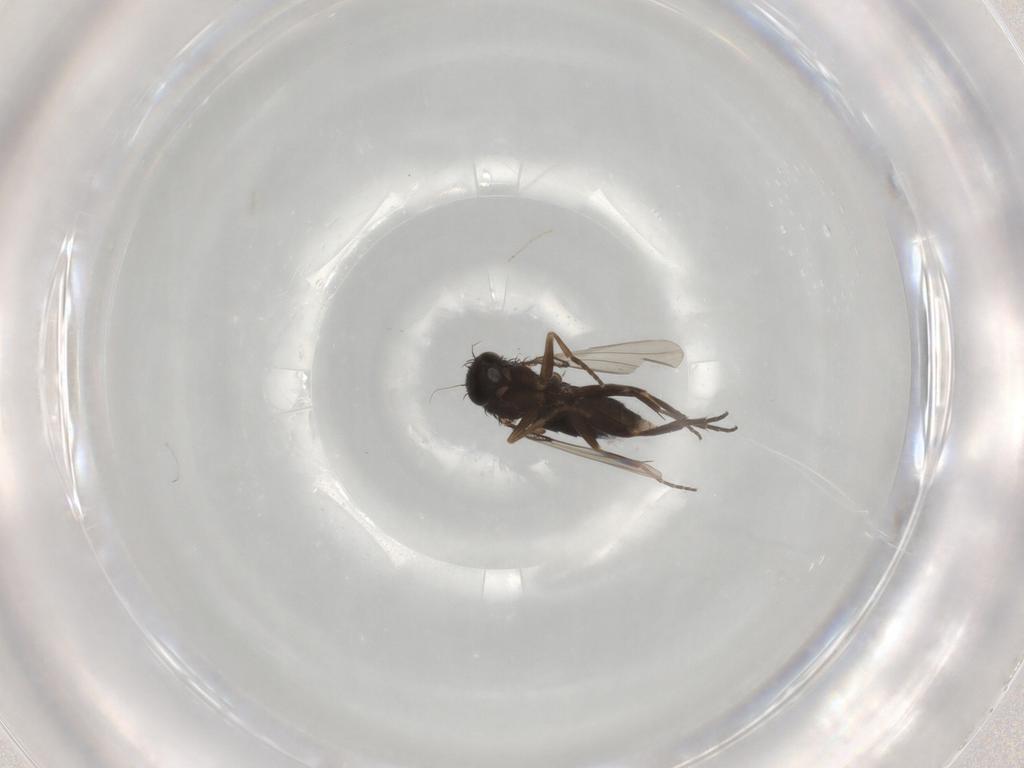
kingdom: Animalia
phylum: Arthropoda
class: Insecta
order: Diptera
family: Phoridae
